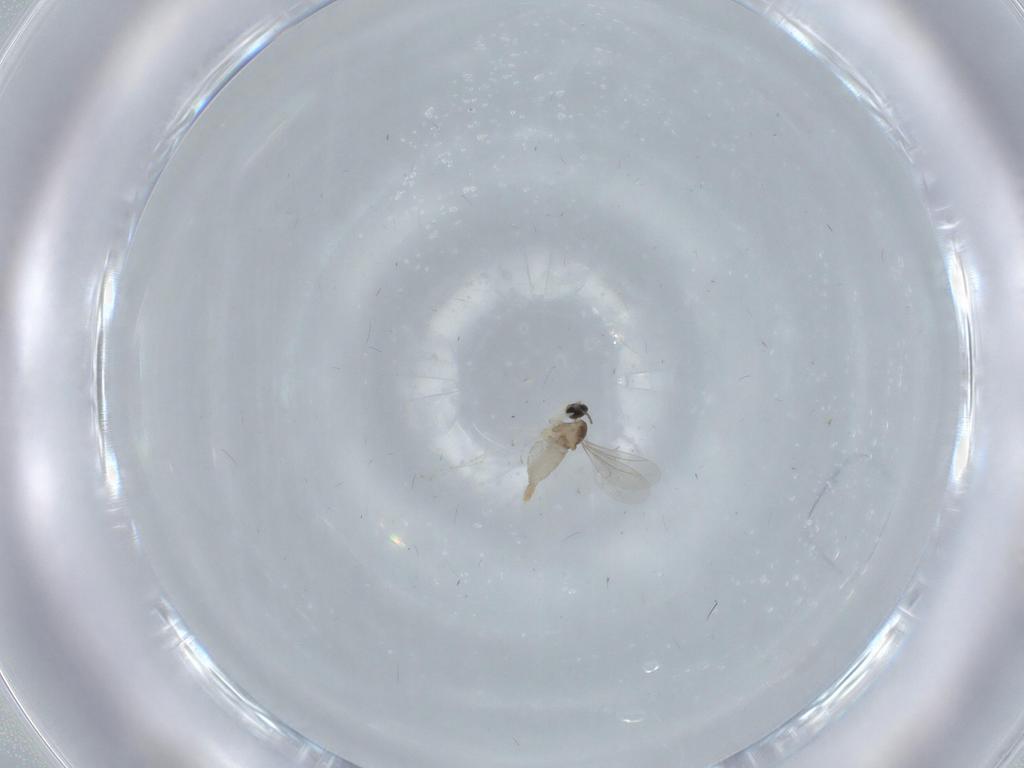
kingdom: Animalia
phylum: Arthropoda
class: Insecta
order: Diptera
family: Cecidomyiidae
